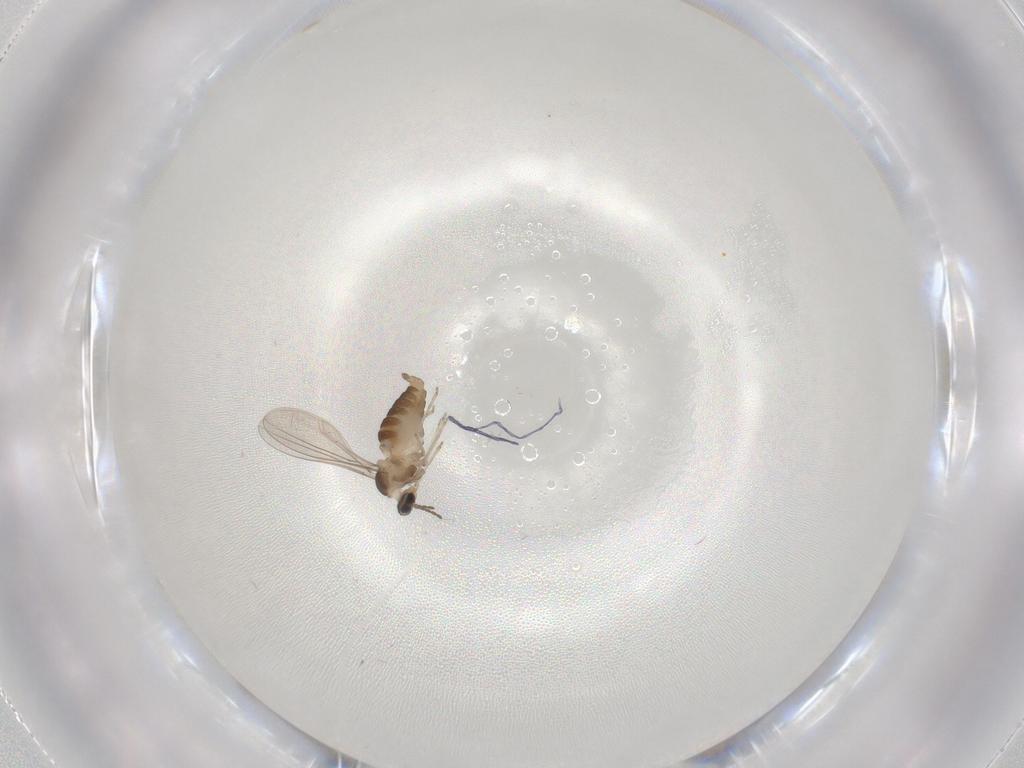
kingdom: Animalia
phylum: Arthropoda
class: Insecta
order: Diptera
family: Cecidomyiidae
